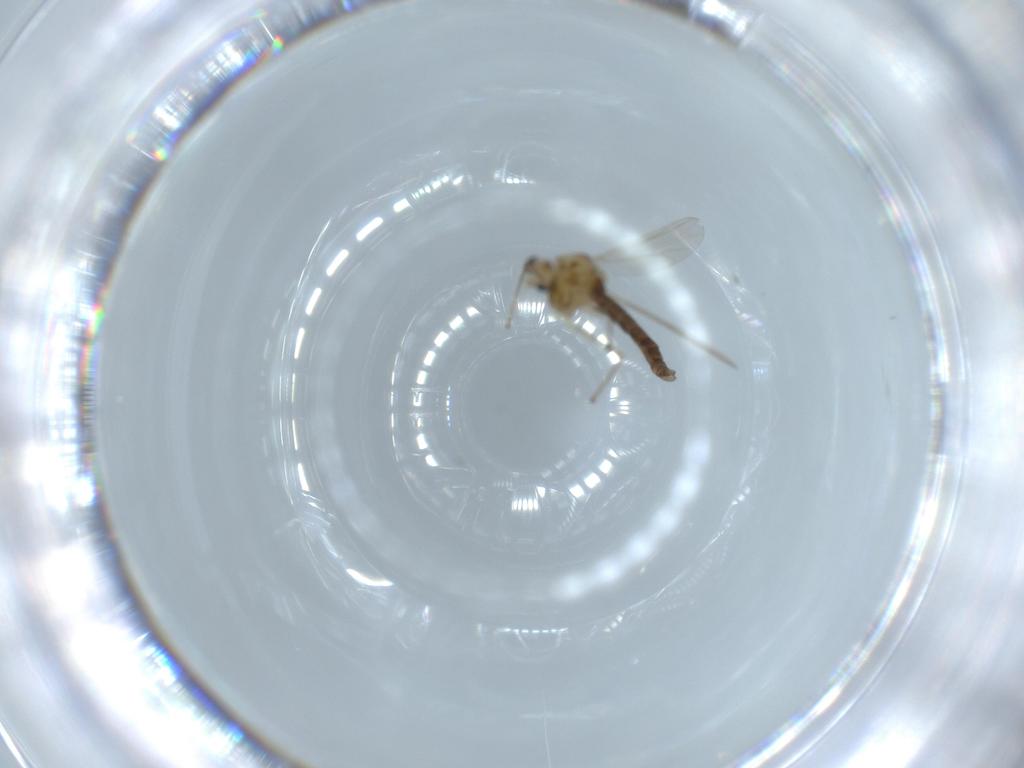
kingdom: Animalia
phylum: Arthropoda
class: Insecta
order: Diptera
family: Chironomidae
